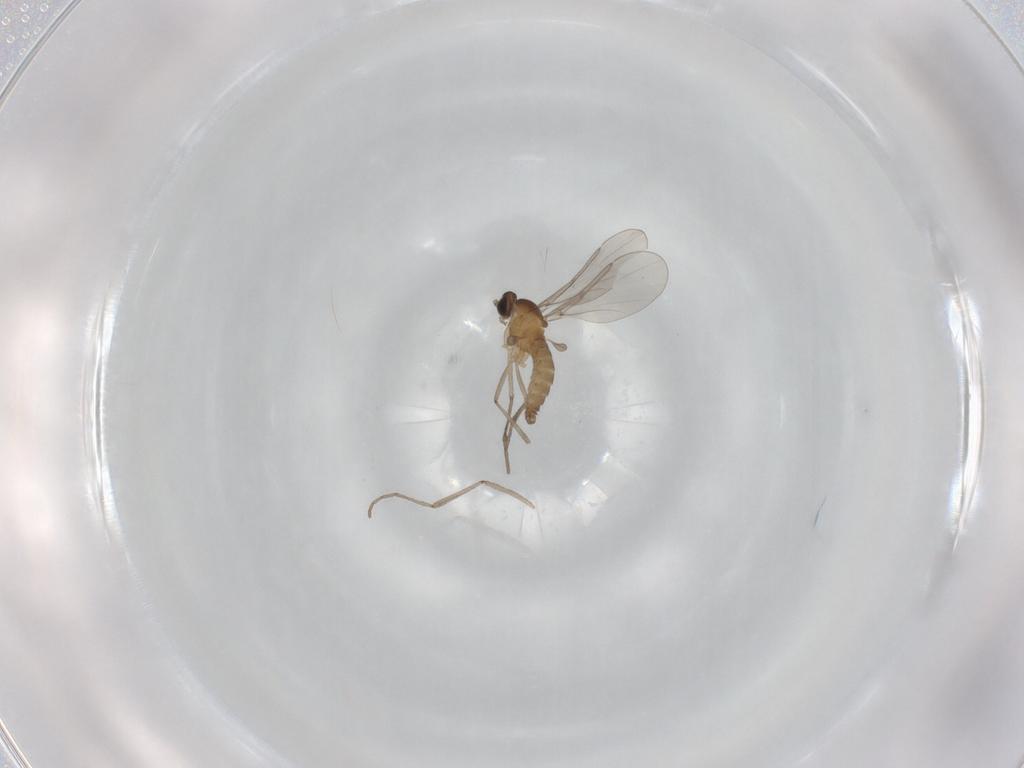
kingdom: Animalia
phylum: Arthropoda
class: Insecta
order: Diptera
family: Cecidomyiidae
